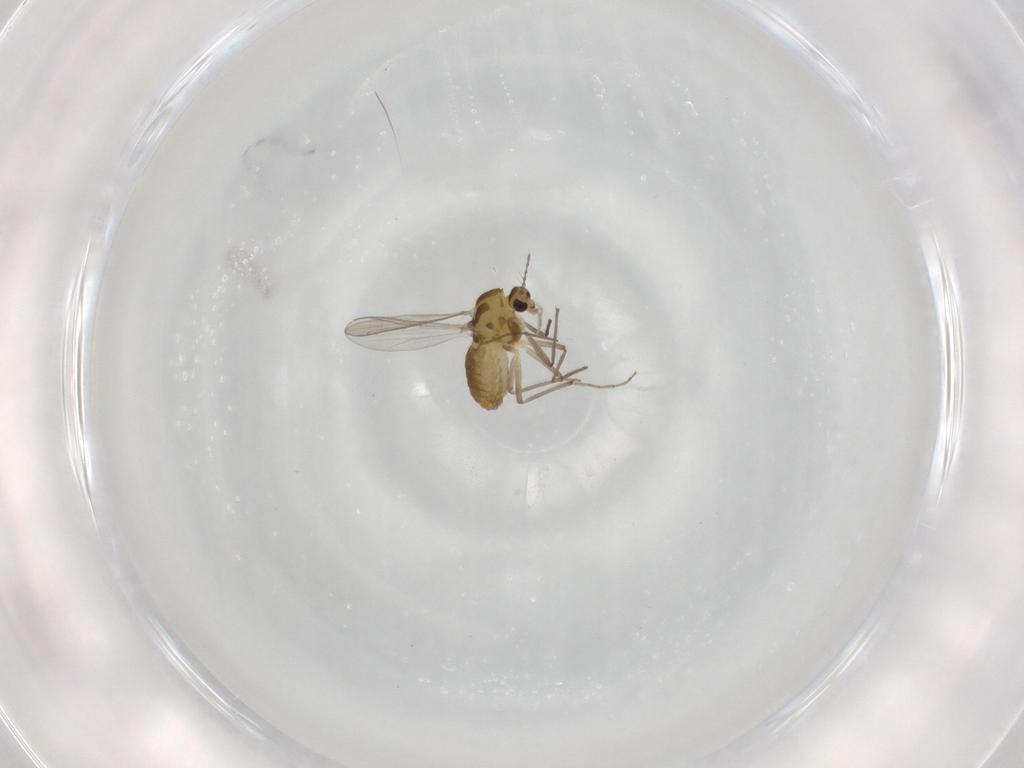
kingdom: Animalia
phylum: Arthropoda
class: Insecta
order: Diptera
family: Chironomidae
